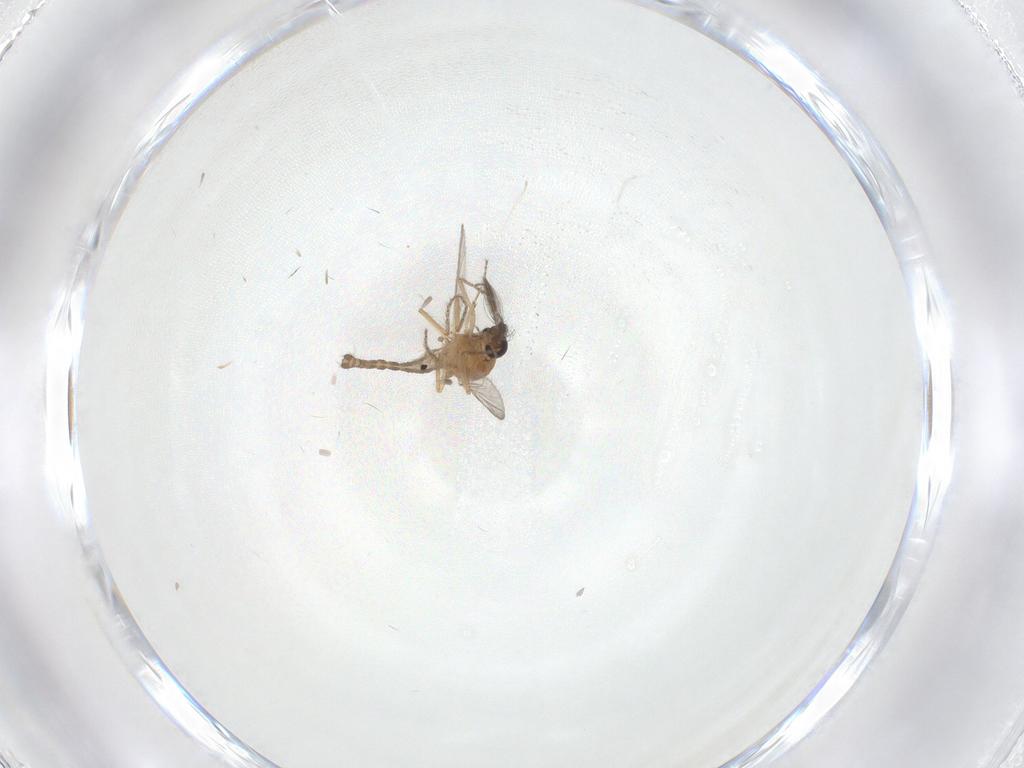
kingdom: Animalia
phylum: Arthropoda
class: Insecta
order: Diptera
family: Ceratopogonidae
